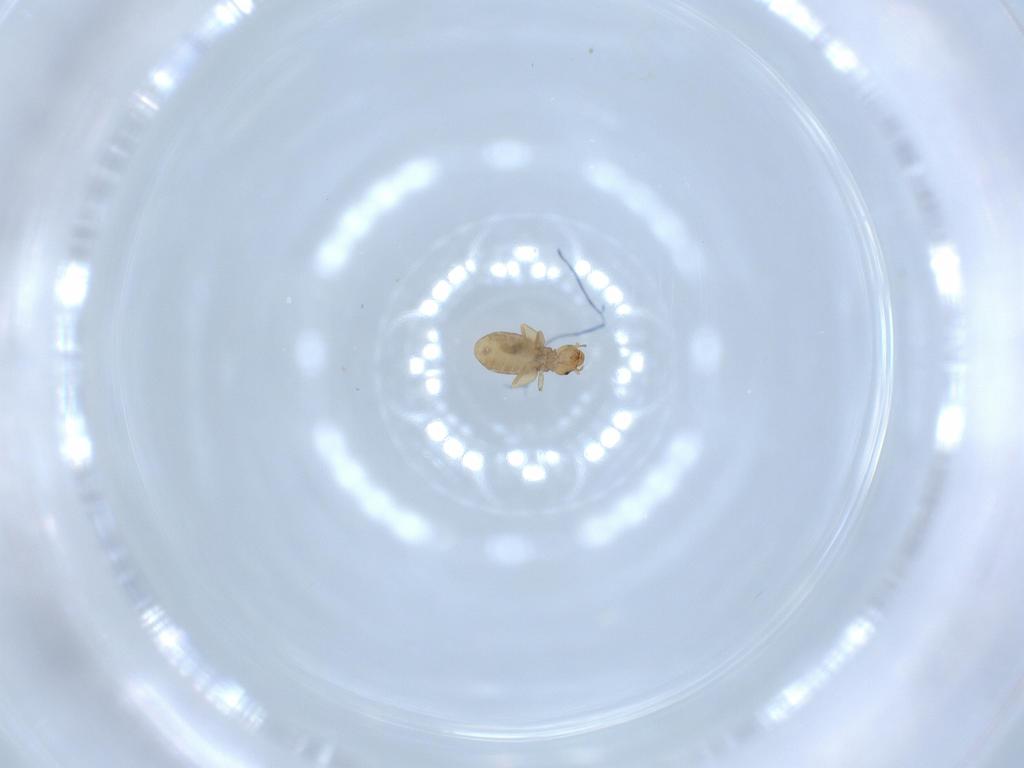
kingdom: Animalia
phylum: Arthropoda
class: Insecta
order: Psocodea
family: Liposcelididae
